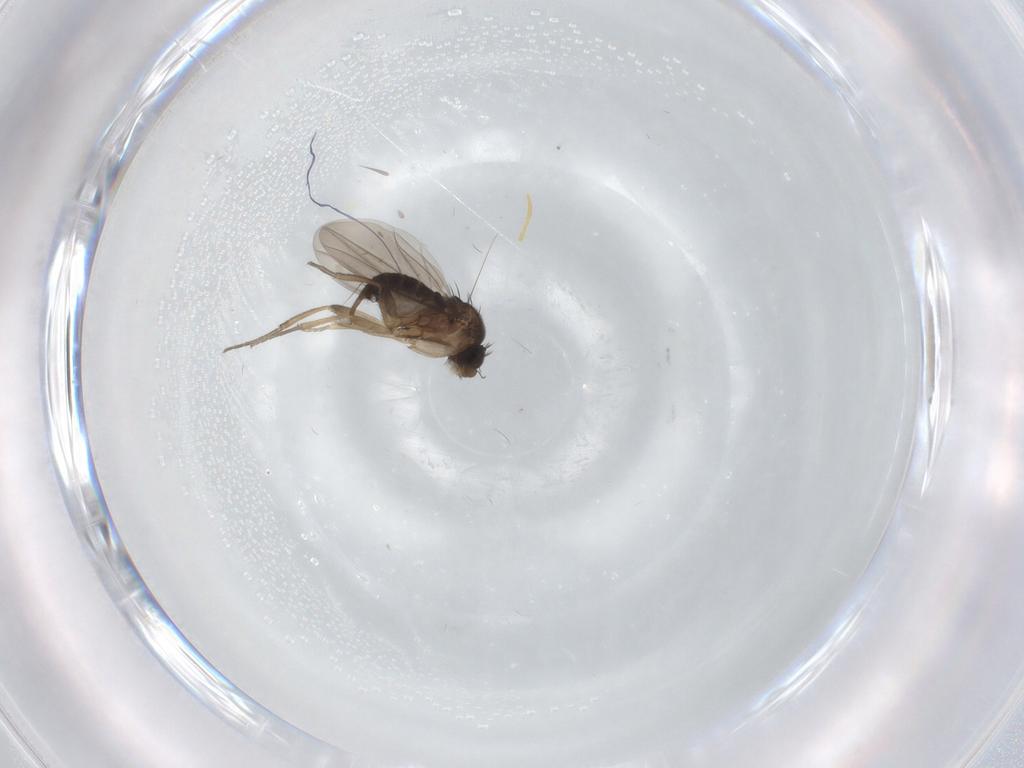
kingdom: Animalia
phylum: Arthropoda
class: Insecta
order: Diptera
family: Phoridae
